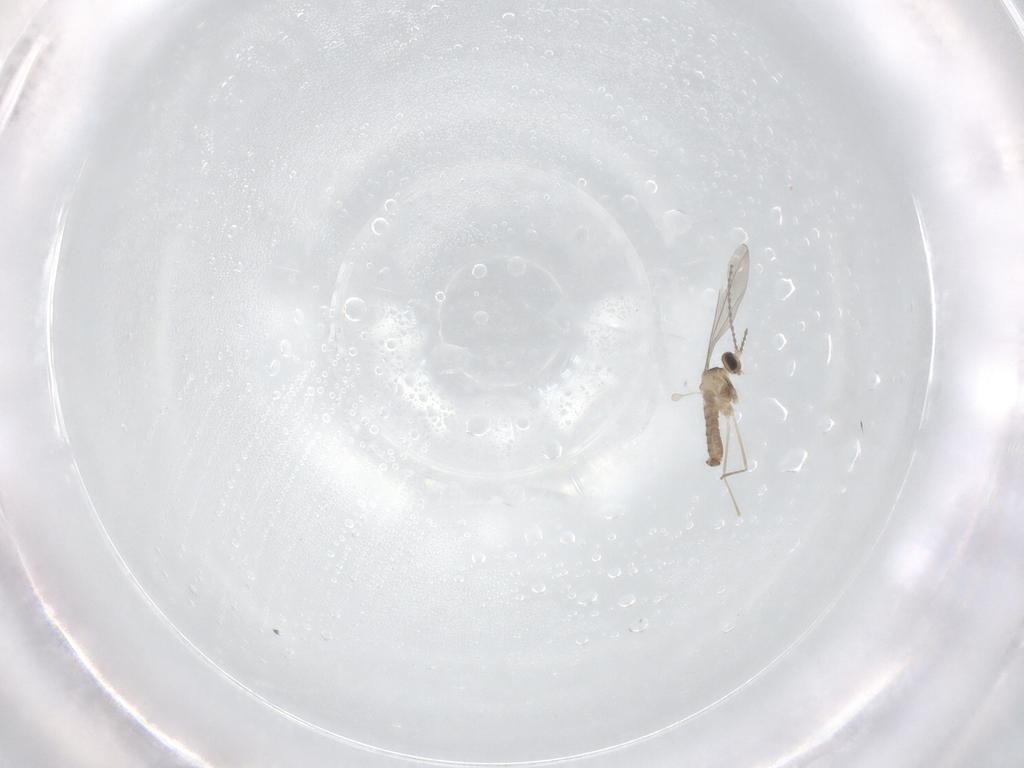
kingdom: Animalia
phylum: Arthropoda
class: Insecta
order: Diptera
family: Cecidomyiidae
